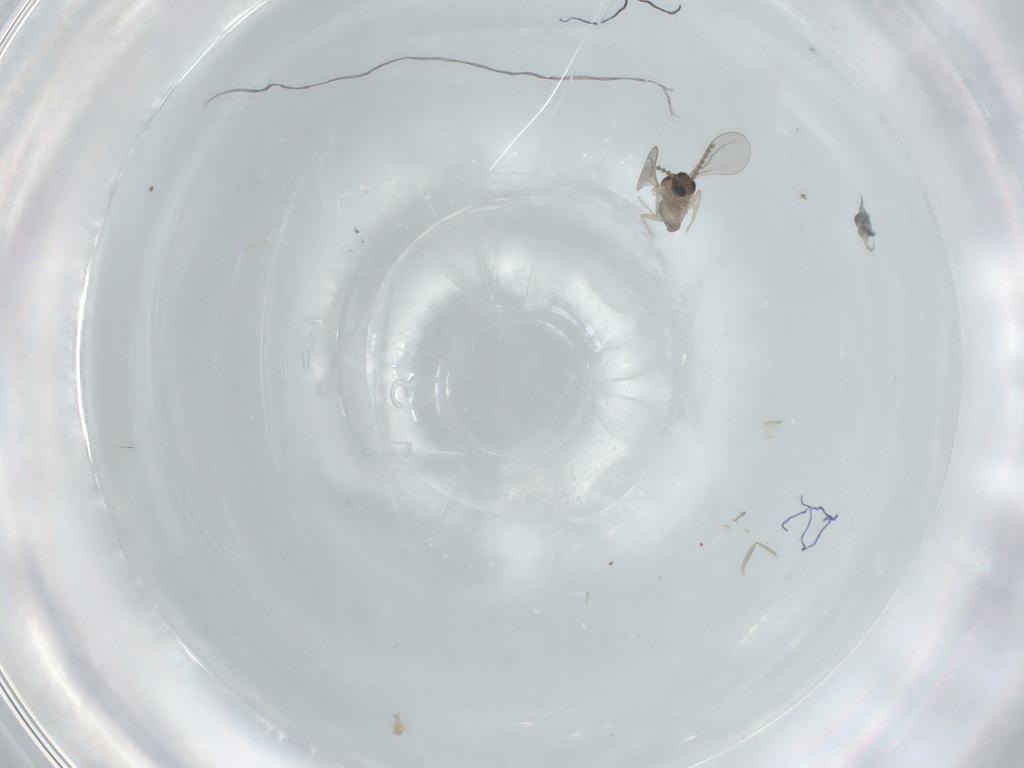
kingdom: Animalia
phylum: Arthropoda
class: Insecta
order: Diptera
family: Cecidomyiidae
